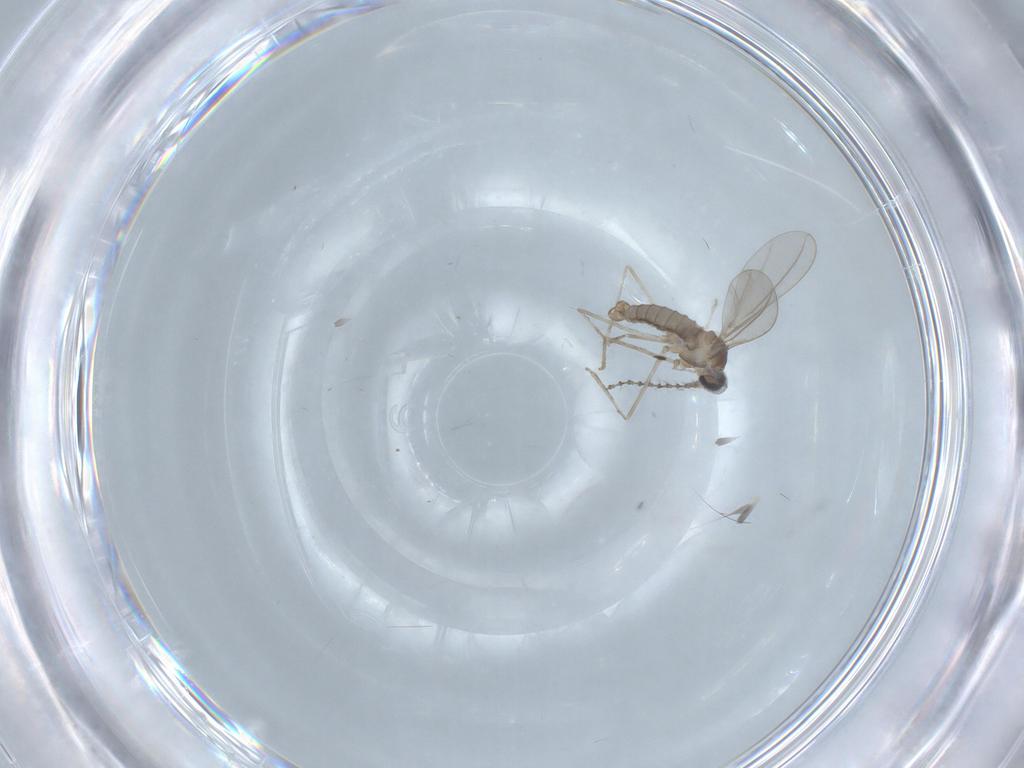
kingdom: Animalia
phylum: Arthropoda
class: Insecta
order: Diptera
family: Cecidomyiidae
